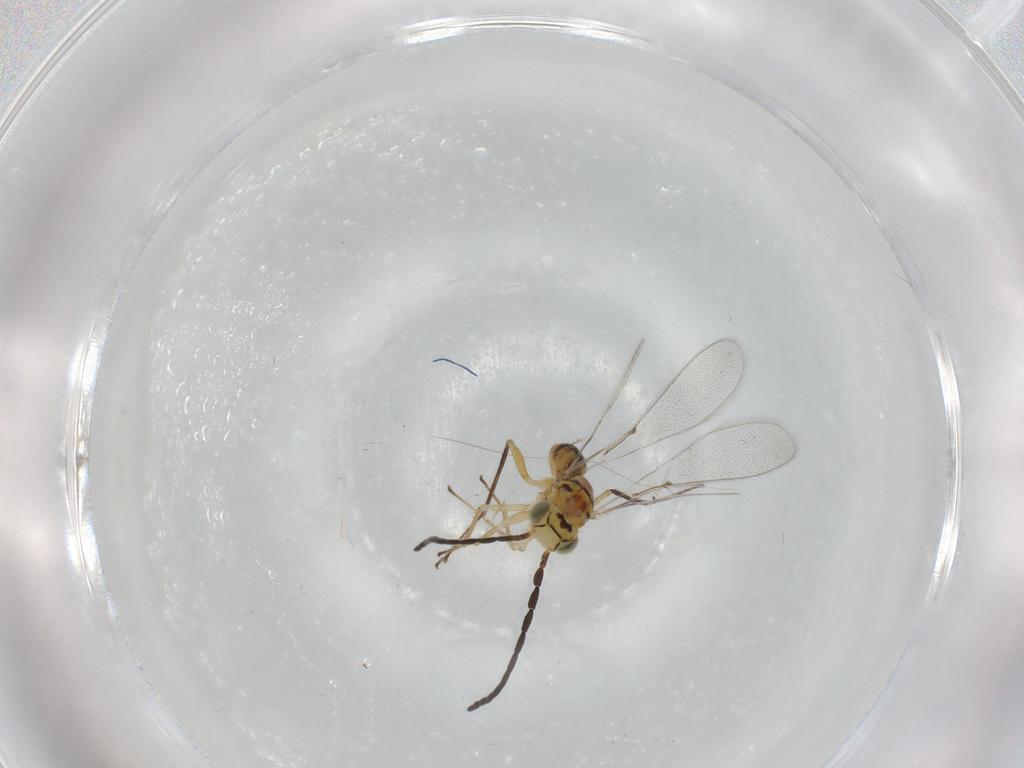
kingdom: Animalia
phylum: Arthropoda
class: Insecta
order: Hymenoptera
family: Mymaridae
